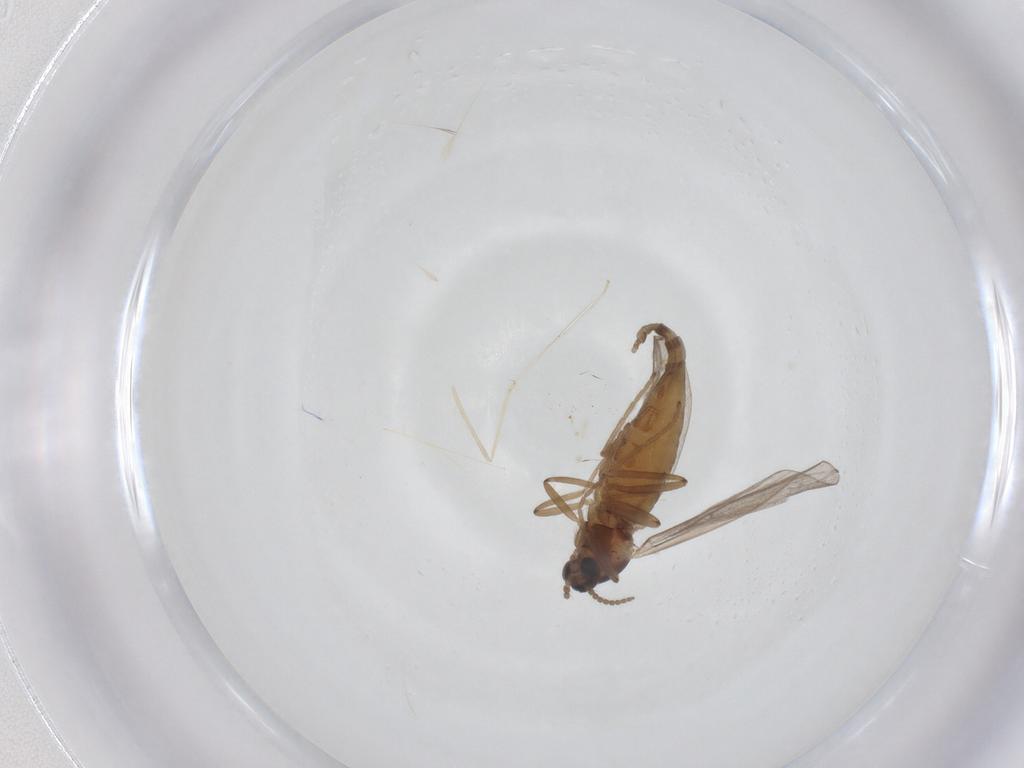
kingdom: Animalia
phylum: Arthropoda
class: Insecta
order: Diptera
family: Cecidomyiidae
